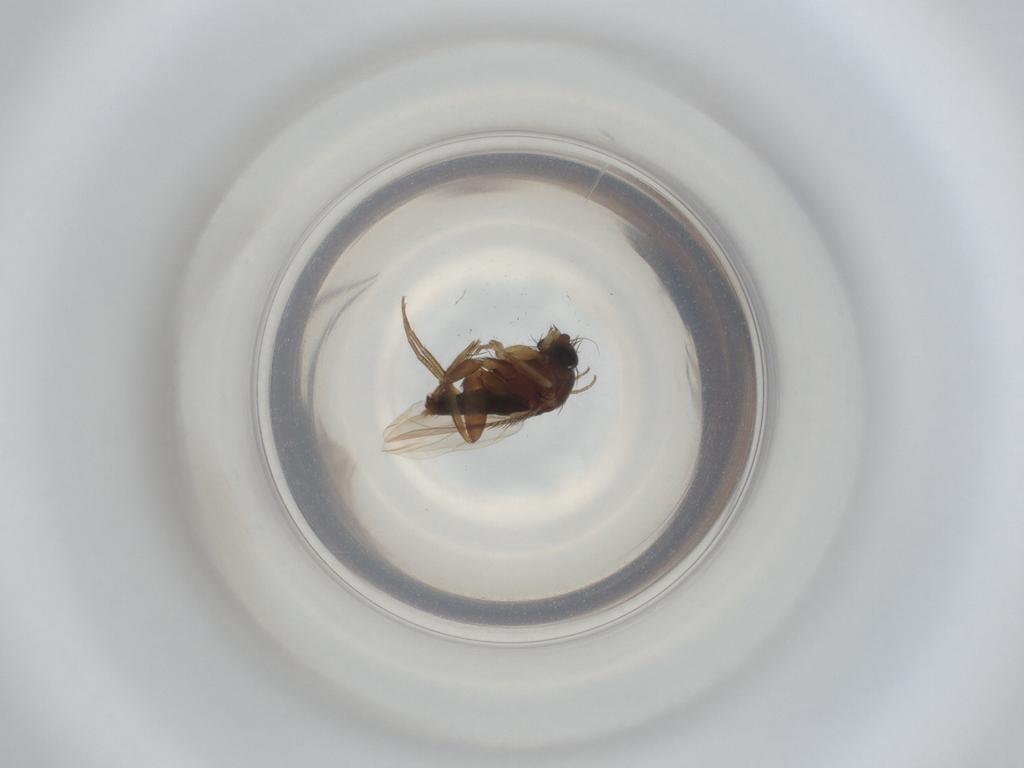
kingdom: Animalia
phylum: Arthropoda
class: Insecta
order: Diptera
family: Phoridae
